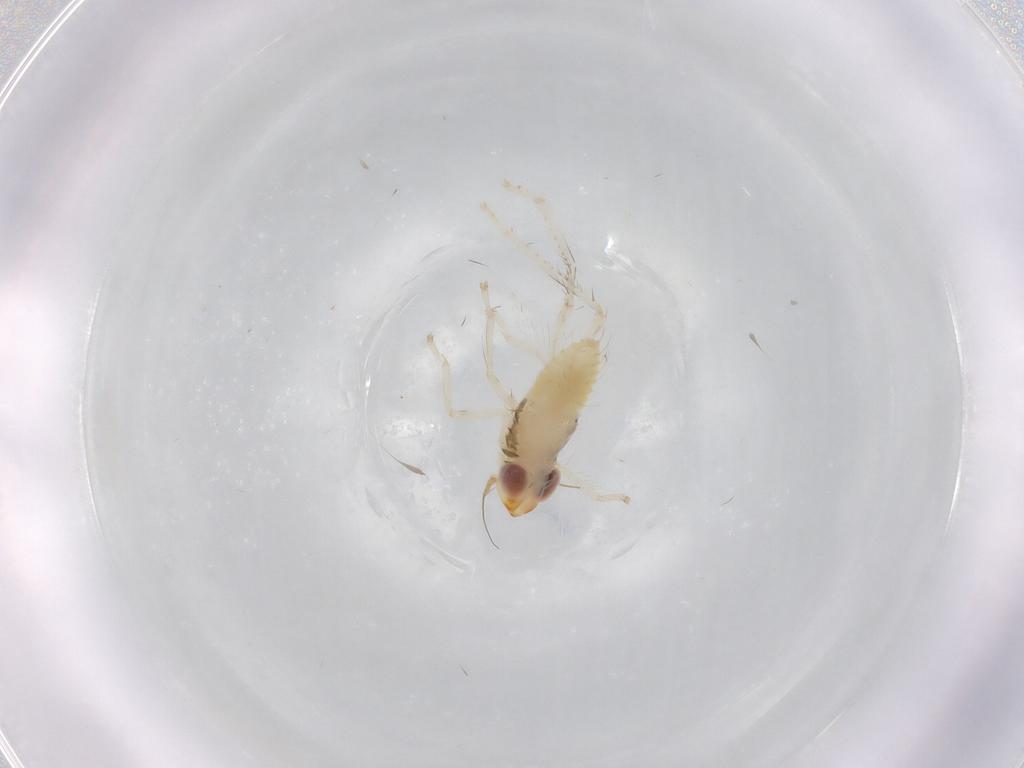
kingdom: Animalia
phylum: Arthropoda
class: Insecta
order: Hemiptera
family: Cicadellidae
